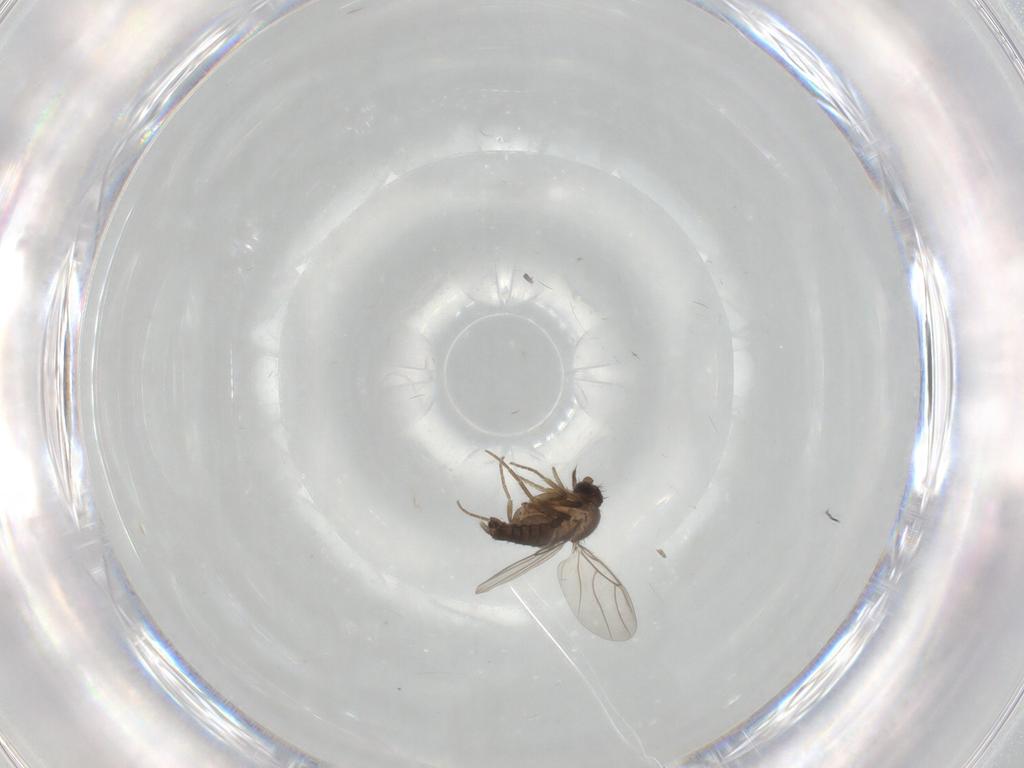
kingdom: Animalia
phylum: Arthropoda
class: Insecta
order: Diptera
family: Phoridae
